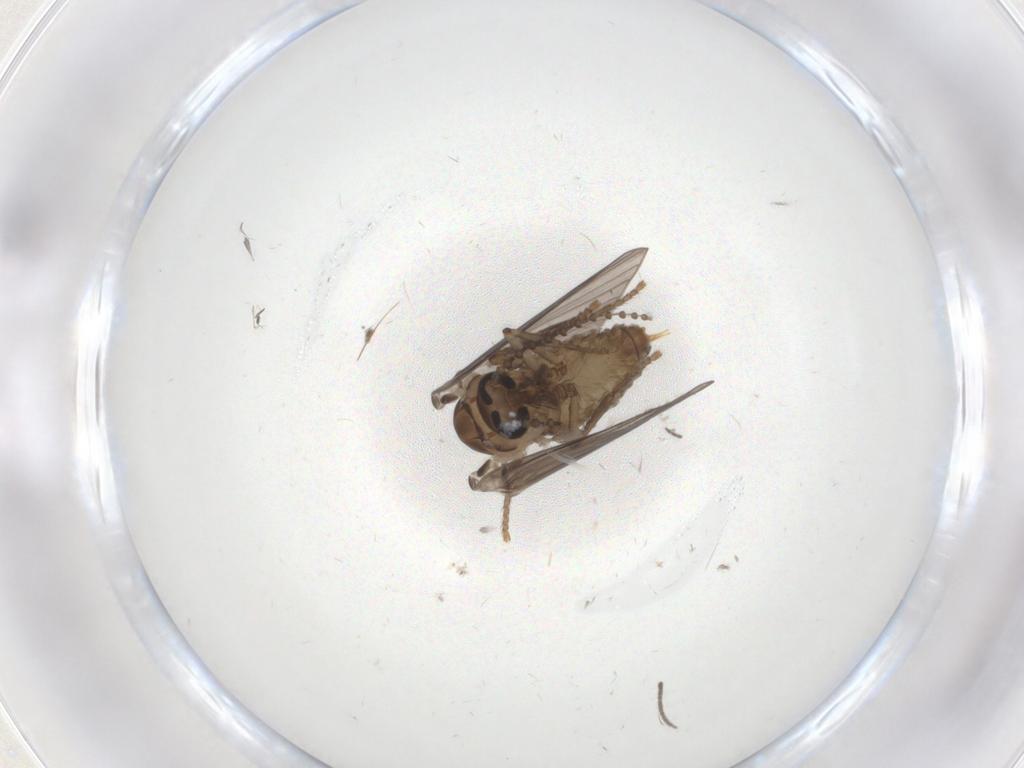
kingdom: Animalia
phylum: Arthropoda
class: Insecta
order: Diptera
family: Psychodidae
